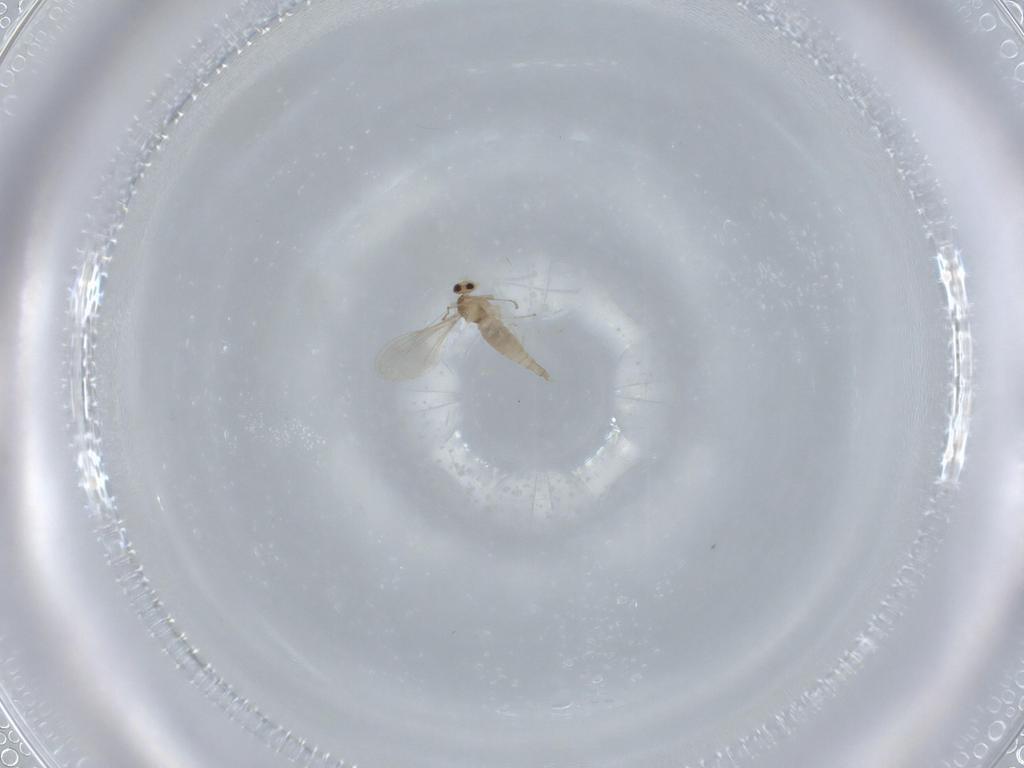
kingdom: Animalia
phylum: Arthropoda
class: Insecta
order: Diptera
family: Cecidomyiidae
